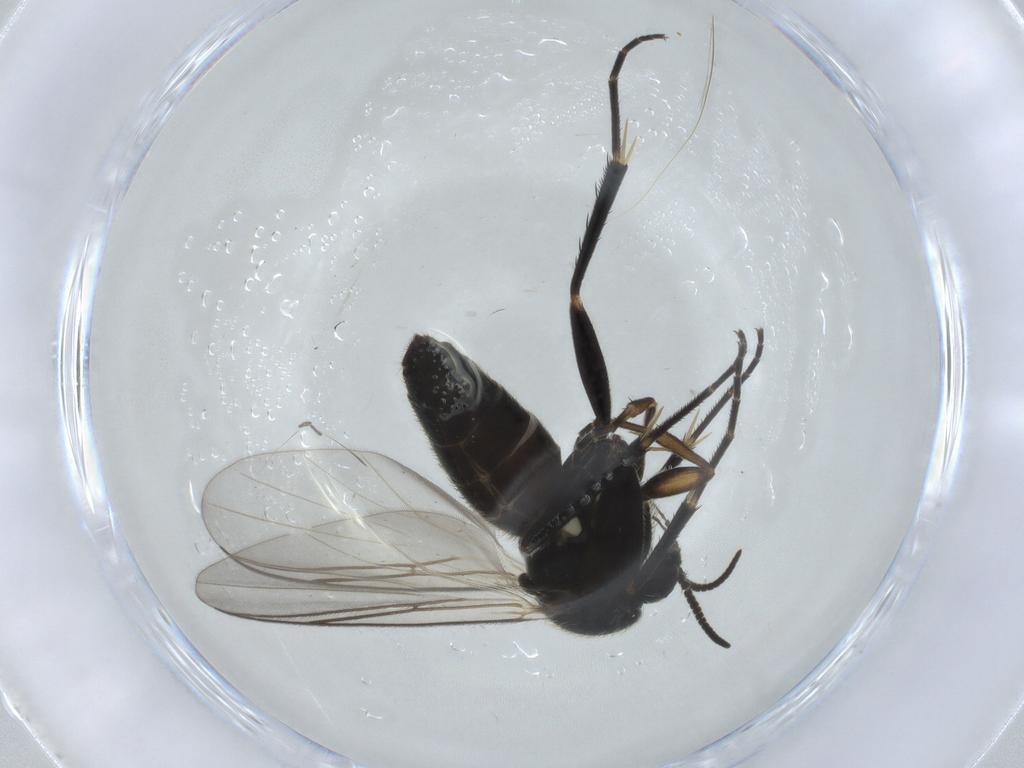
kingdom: Animalia
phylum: Arthropoda
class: Insecta
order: Diptera
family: Mycetophilidae
